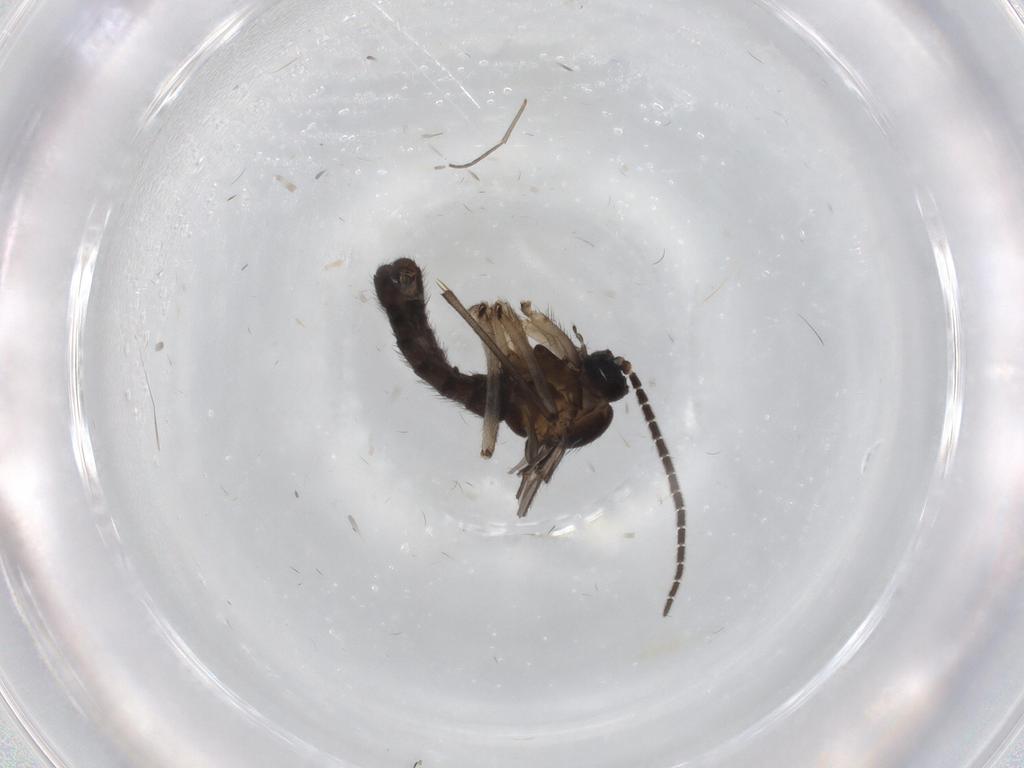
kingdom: Animalia
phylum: Arthropoda
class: Insecta
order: Diptera
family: Sciaridae
